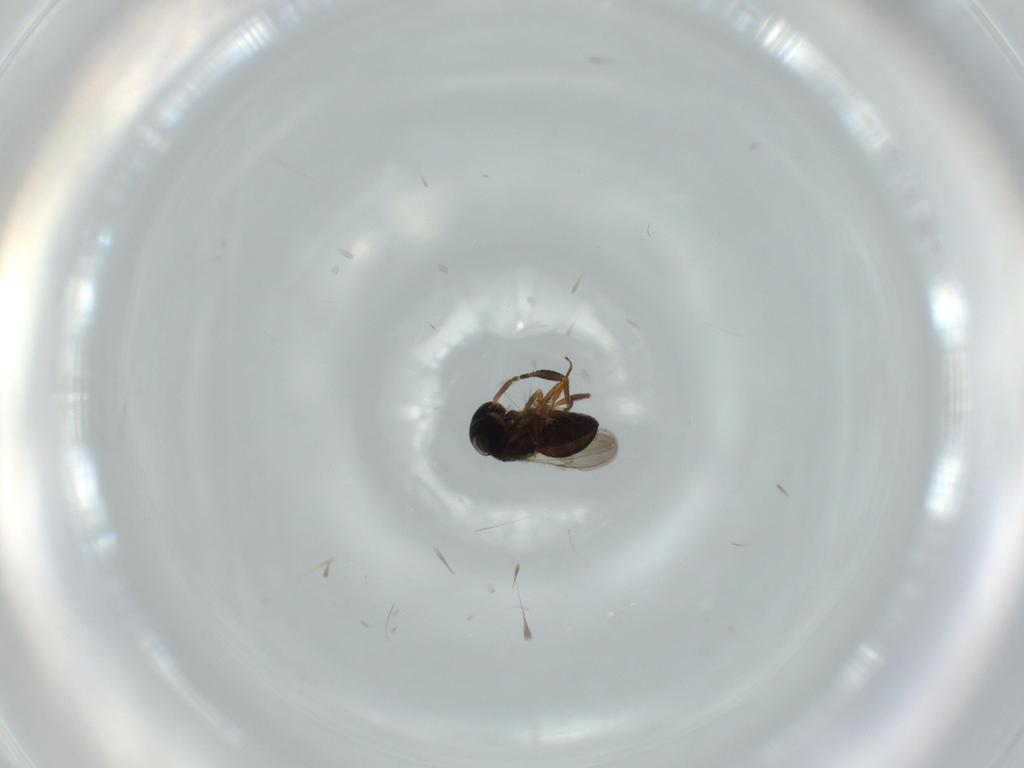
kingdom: Animalia
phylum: Arthropoda
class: Insecta
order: Hymenoptera
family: Scelionidae
